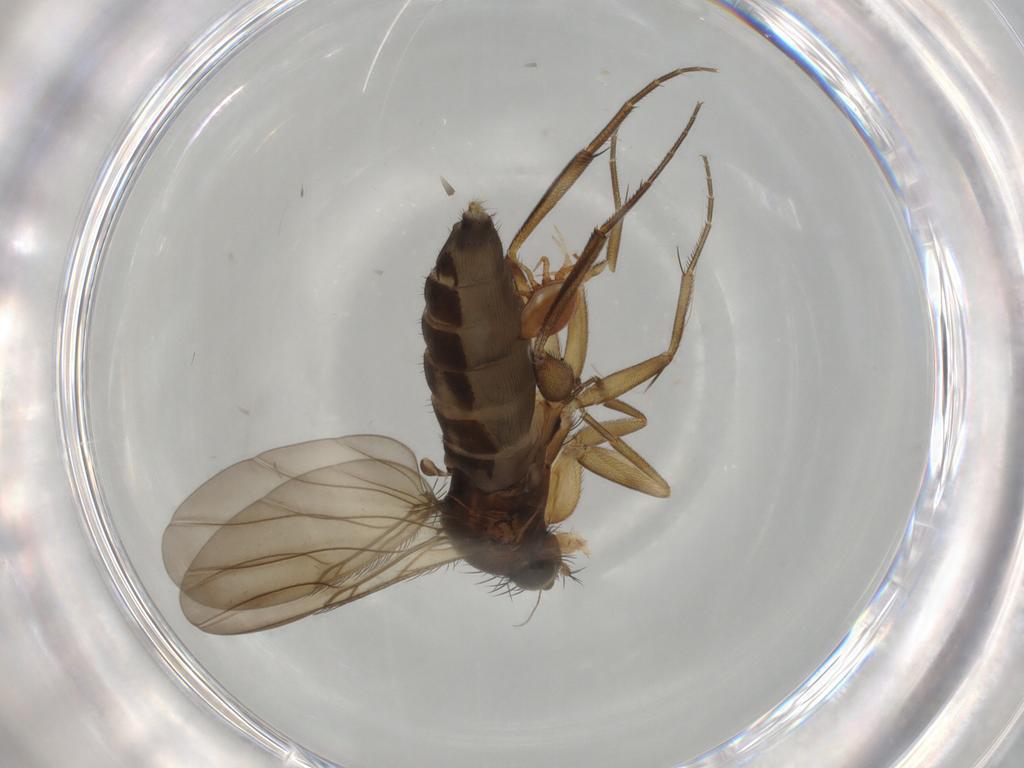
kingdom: Animalia
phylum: Arthropoda
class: Insecta
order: Diptera
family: Phoridae
